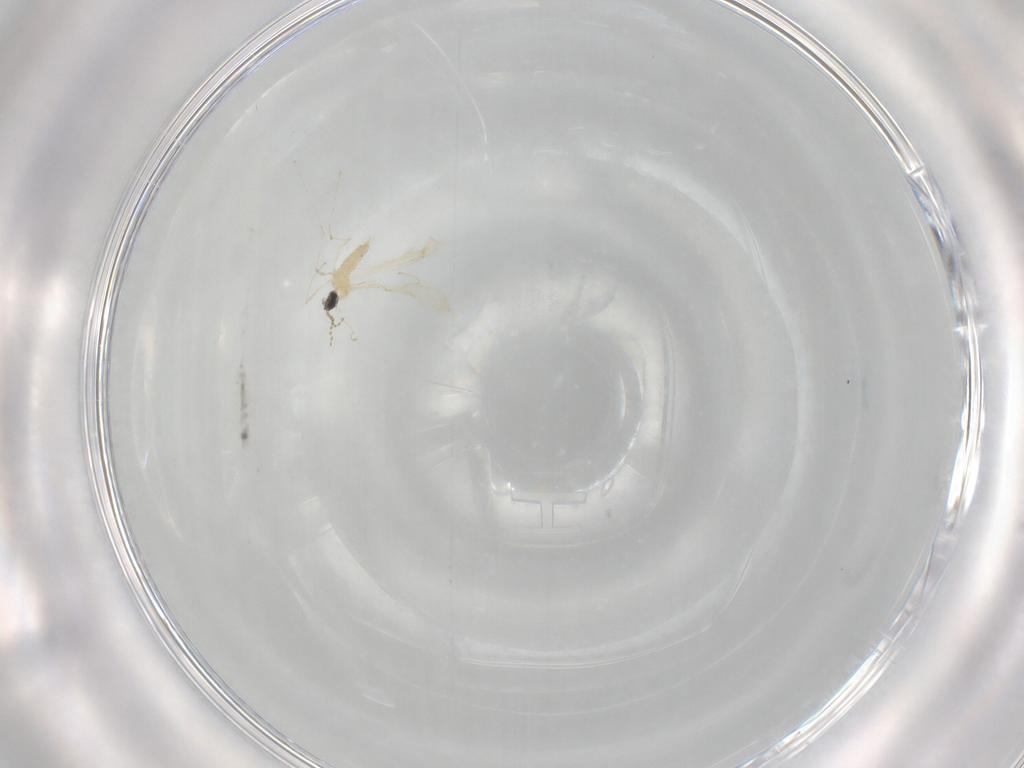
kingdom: Animalia
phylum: Arthropoda
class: Insecta
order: Diptera
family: Cecidomyiidae
